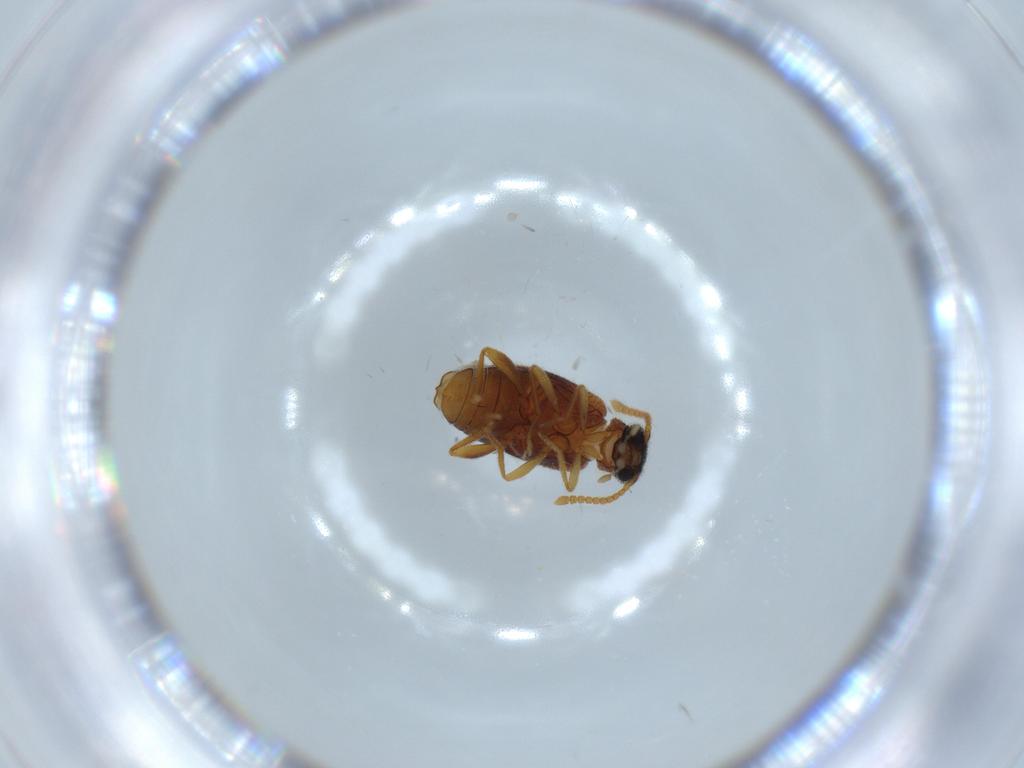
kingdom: Animalia
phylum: Arthropoda
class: Insecta
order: Coleoptera
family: Aderidae
